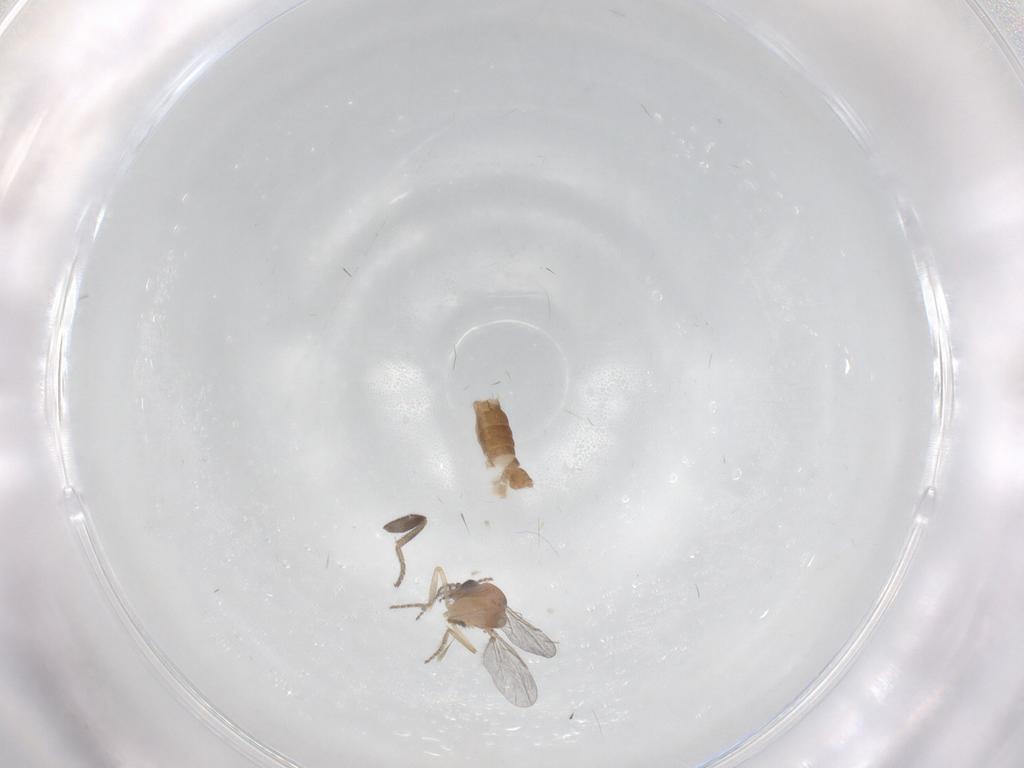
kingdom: Animalia
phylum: Arthropoda
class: Insecta
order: Diptera
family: Ceratopogonidae
